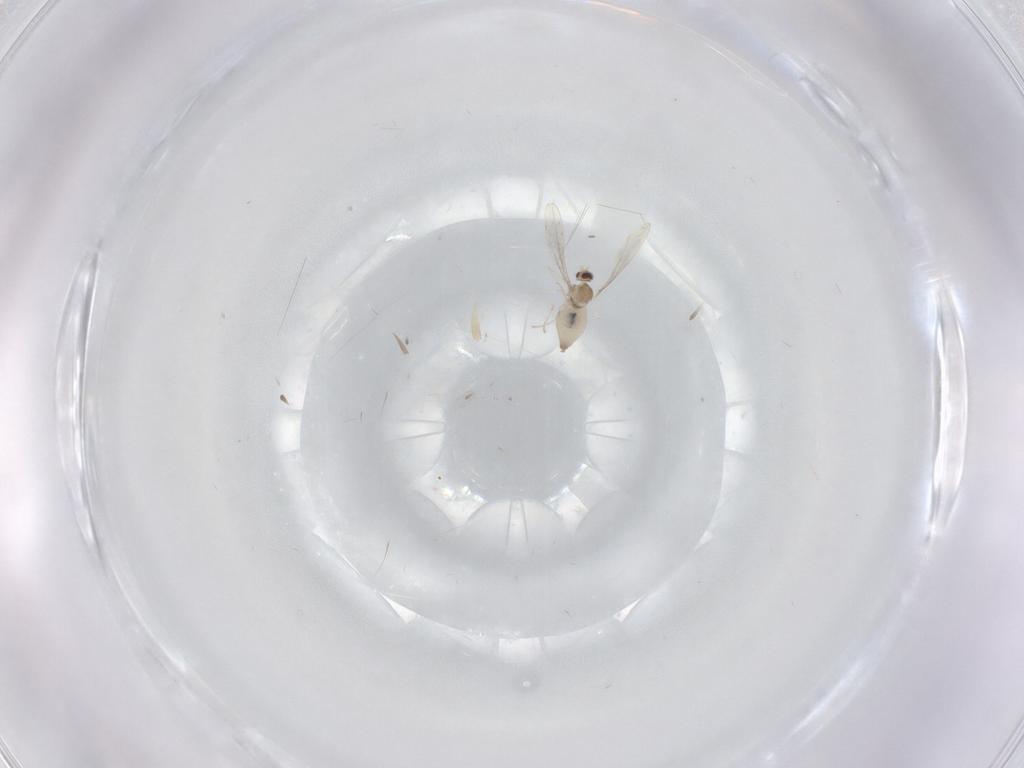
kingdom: Animalia
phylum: Arthropoda
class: Insecta
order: Diptera
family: Cecidomyiidae
